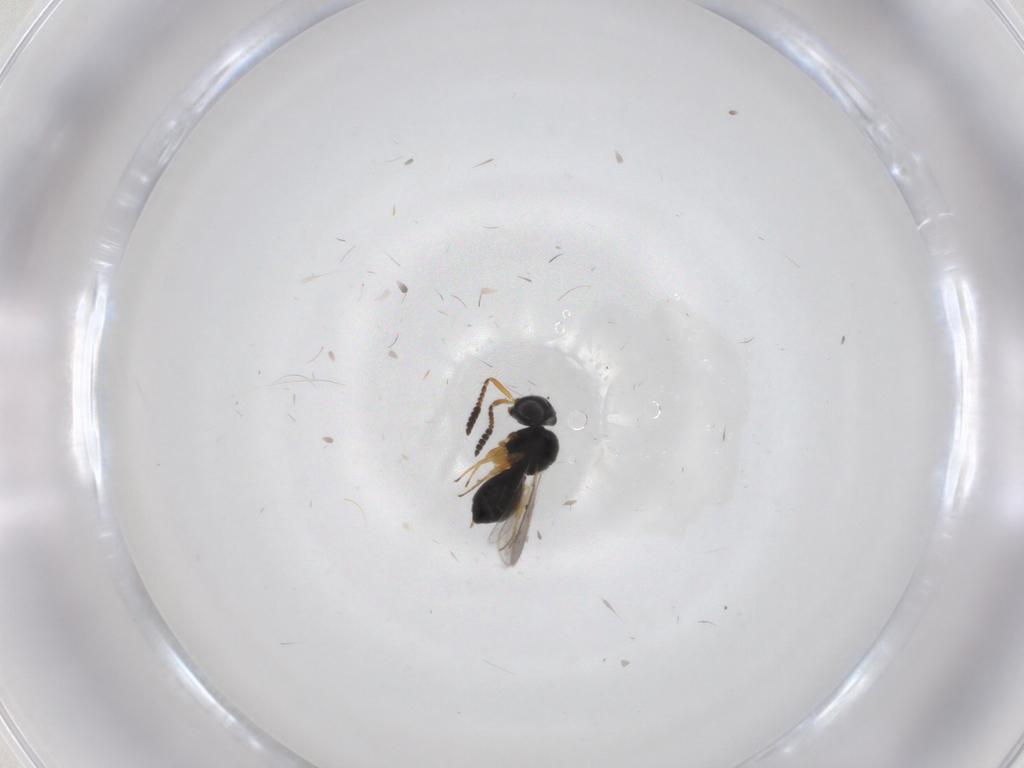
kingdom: Animalia
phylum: Arthropoda
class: Insecta
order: Hymenoptera
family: Scelionidae
